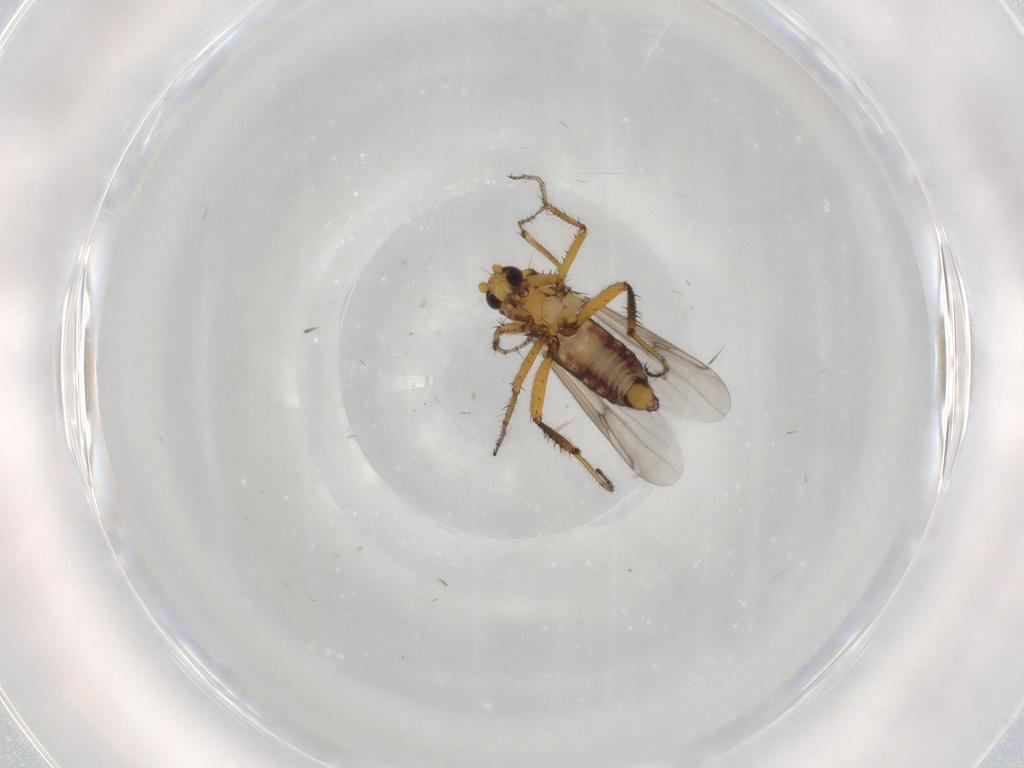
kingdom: Animalia
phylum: Arthropoda
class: Insecta
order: Diptera
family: Ceratopogonidae
